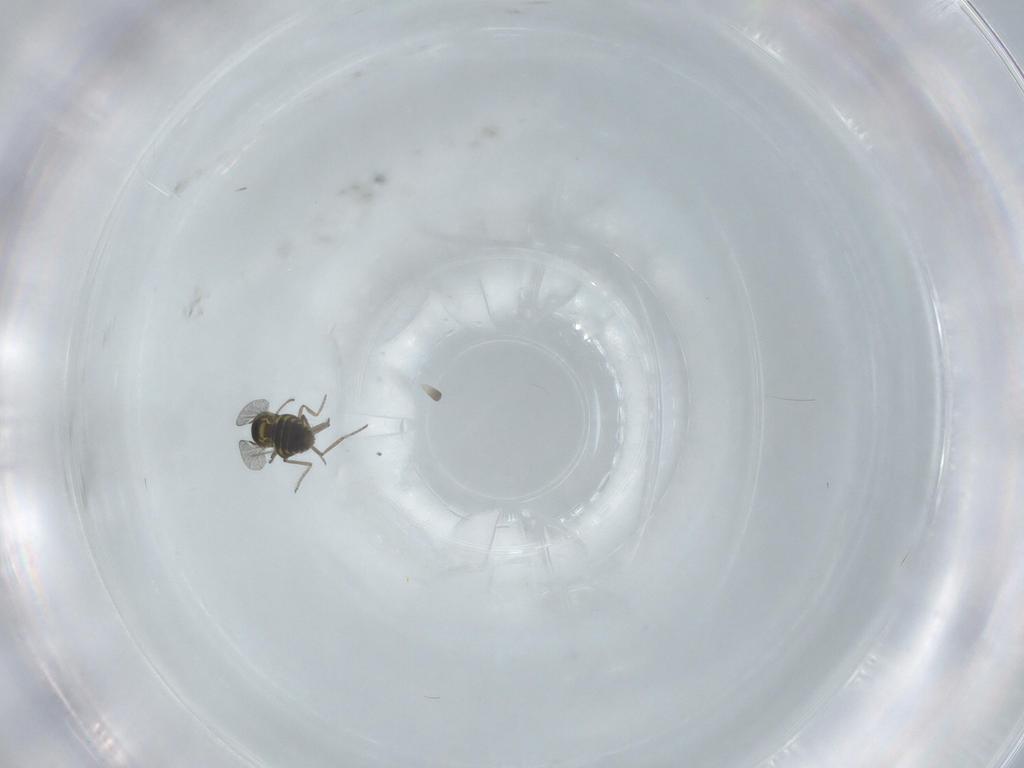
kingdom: Animalia
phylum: Arthropoda
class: Insecta
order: Diptera
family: Ceratopogonidae
